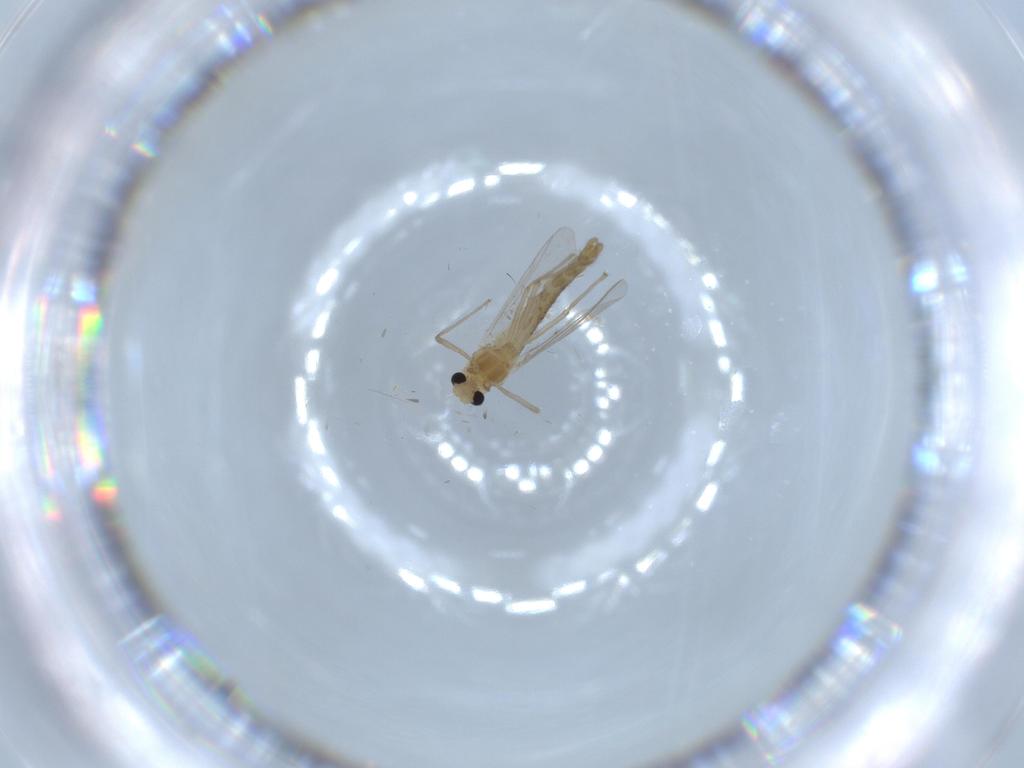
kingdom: Animalia
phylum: Arthropoda
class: Insecta
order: Diptera
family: Chironomidae
